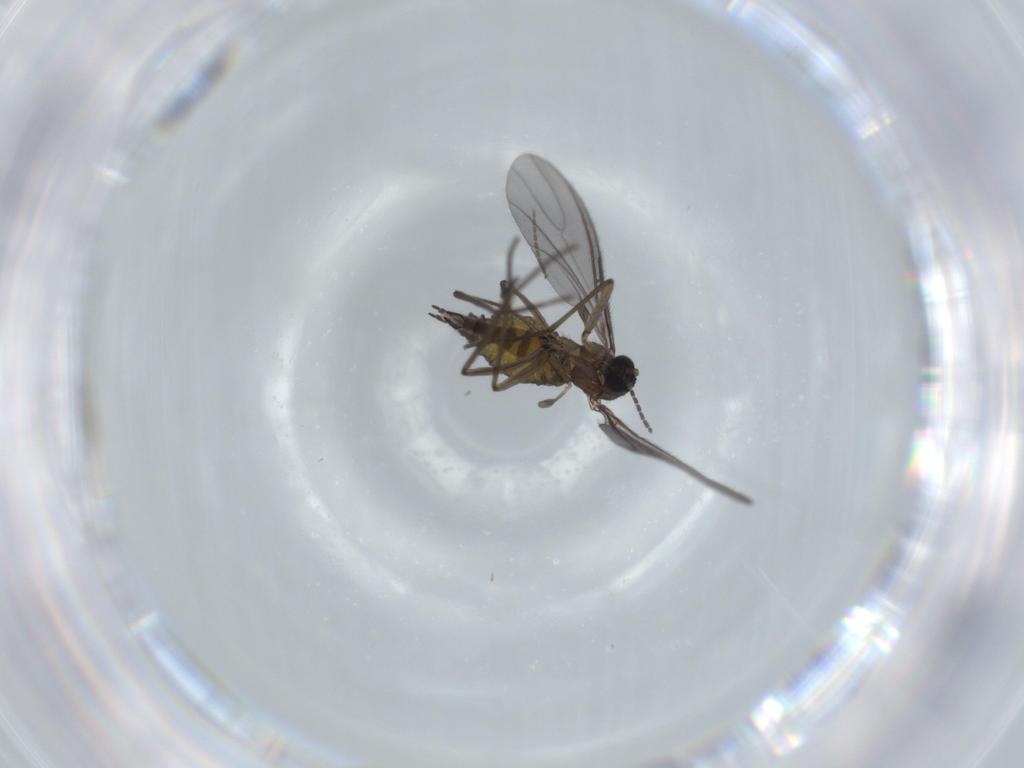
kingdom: Animalia
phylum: Arthropoda
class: Insecta
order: Diptera
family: Sciaridae
